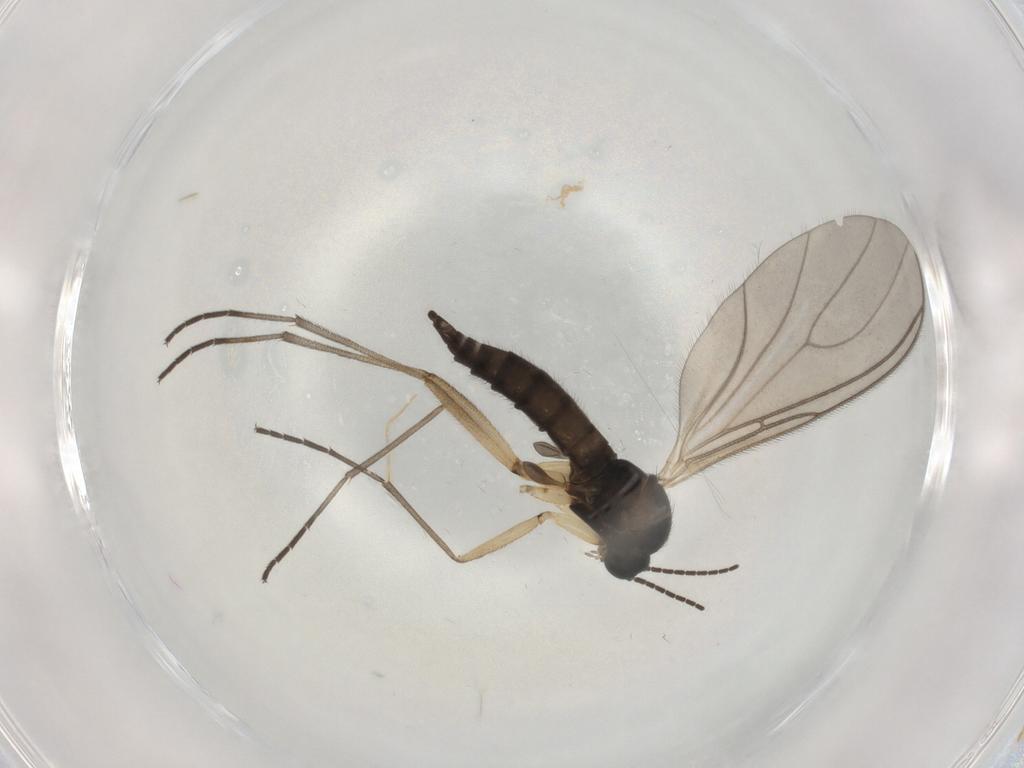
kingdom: Animalia
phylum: Arthropoda
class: Insecta
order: Diptera
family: Sciaridae
